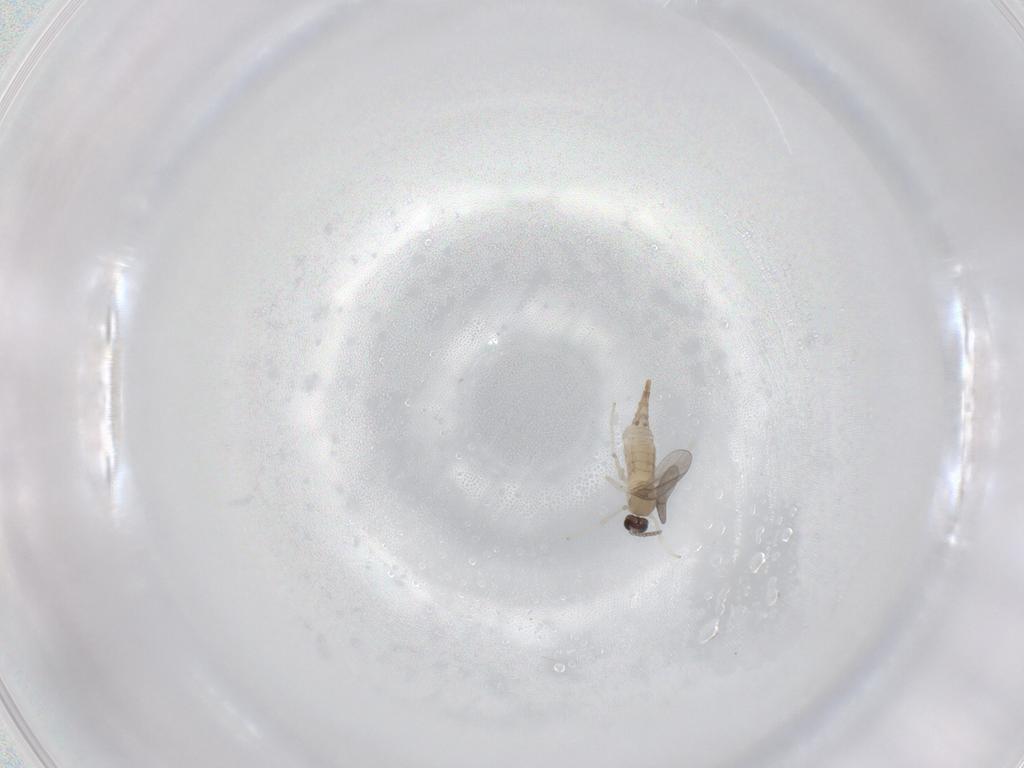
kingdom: Animalia
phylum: Arthropoda
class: Insecta
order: Diptera
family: Cecidomyiidae
